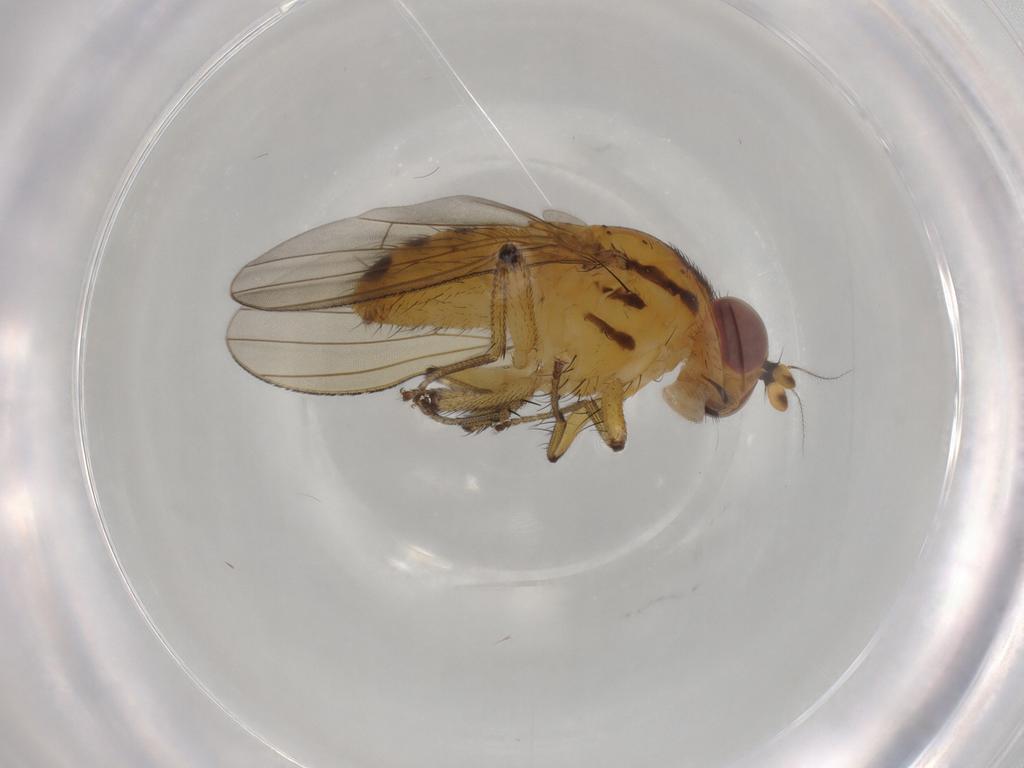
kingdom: Animalia
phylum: Arthropoda
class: Insecta
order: Diptera
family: Cecidomyiidae
